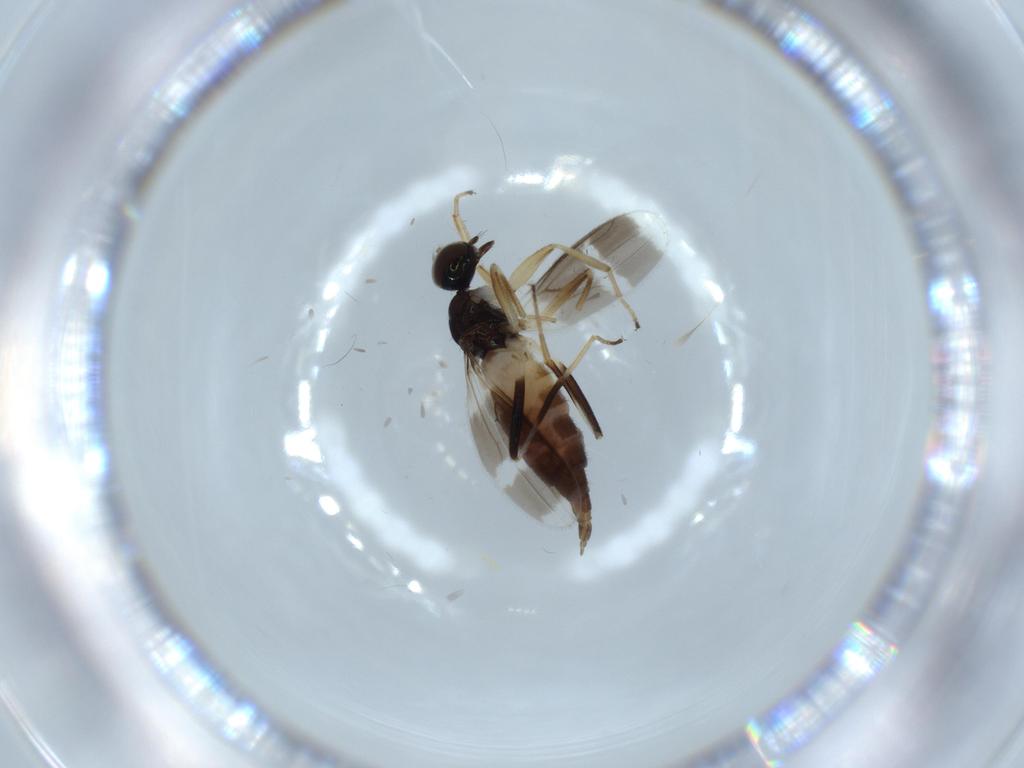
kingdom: Animalia
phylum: Arthropoda
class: Insecta
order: Diptera
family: Hybotidae
